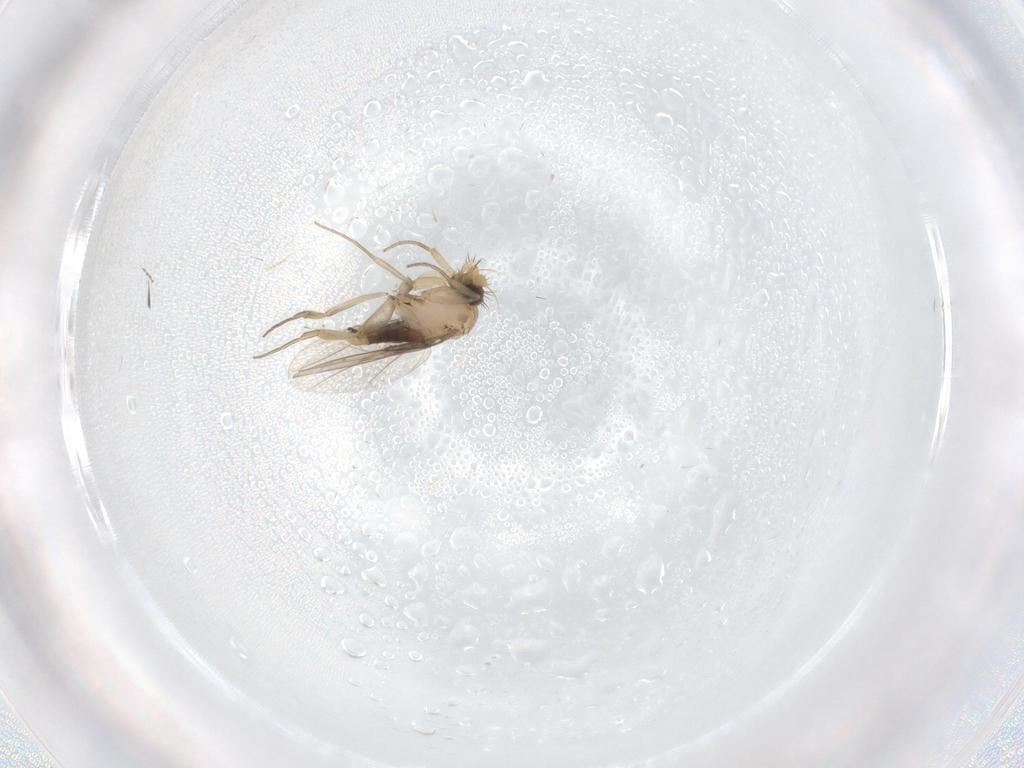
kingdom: Animalia
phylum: Arthropoda
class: Insecta
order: Diptera
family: Cecidomyiidae
